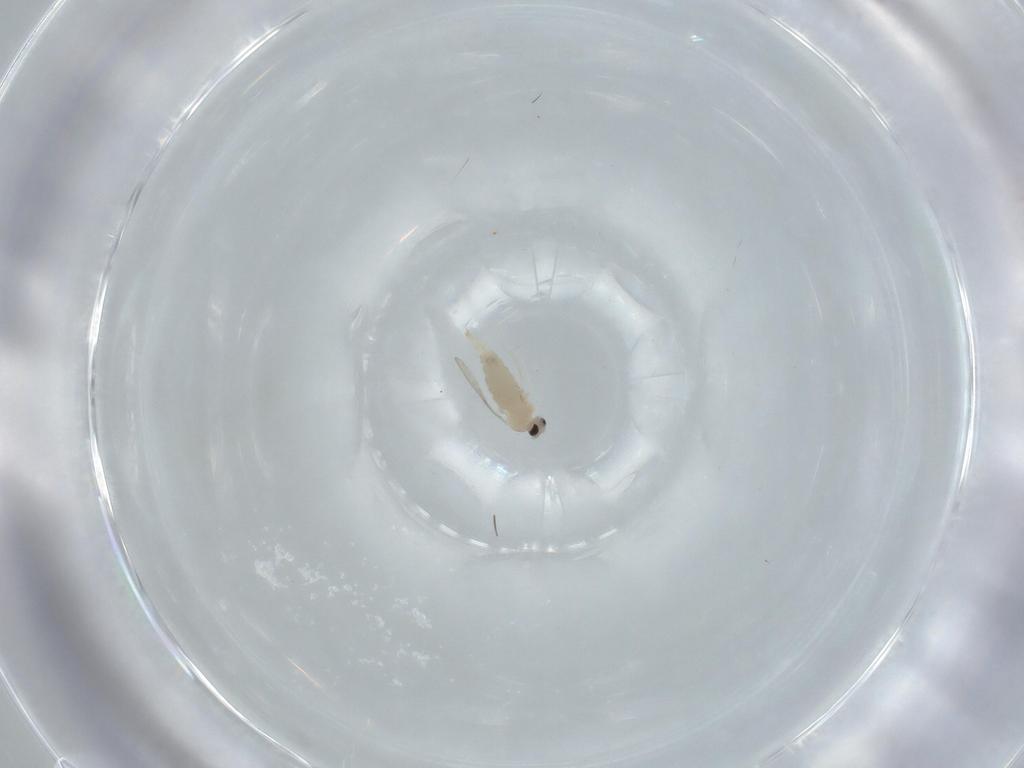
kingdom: Animalia
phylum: Arthropoda
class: Insecta
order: Diptera
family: Cecidomyiidae
